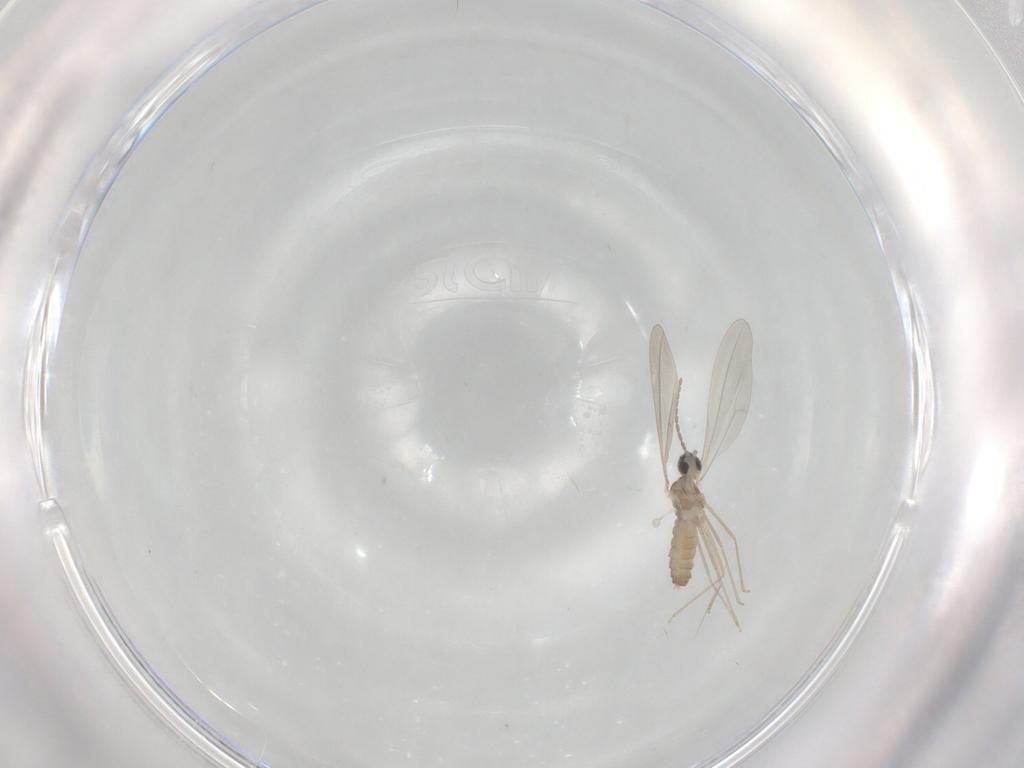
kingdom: Animalia
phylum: Arthropoda
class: Insecta
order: Diptera
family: Cecidomyiidae
